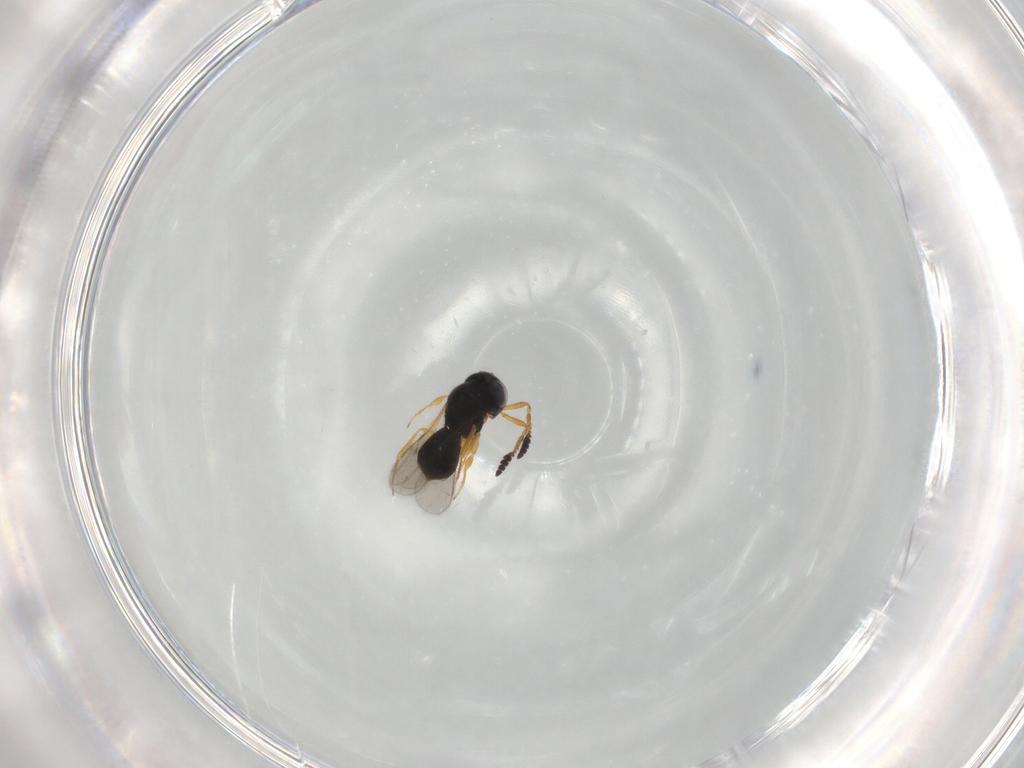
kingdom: Animalia
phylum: Arthropoda
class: Insecta
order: Hymenoptera
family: Scelionidae
